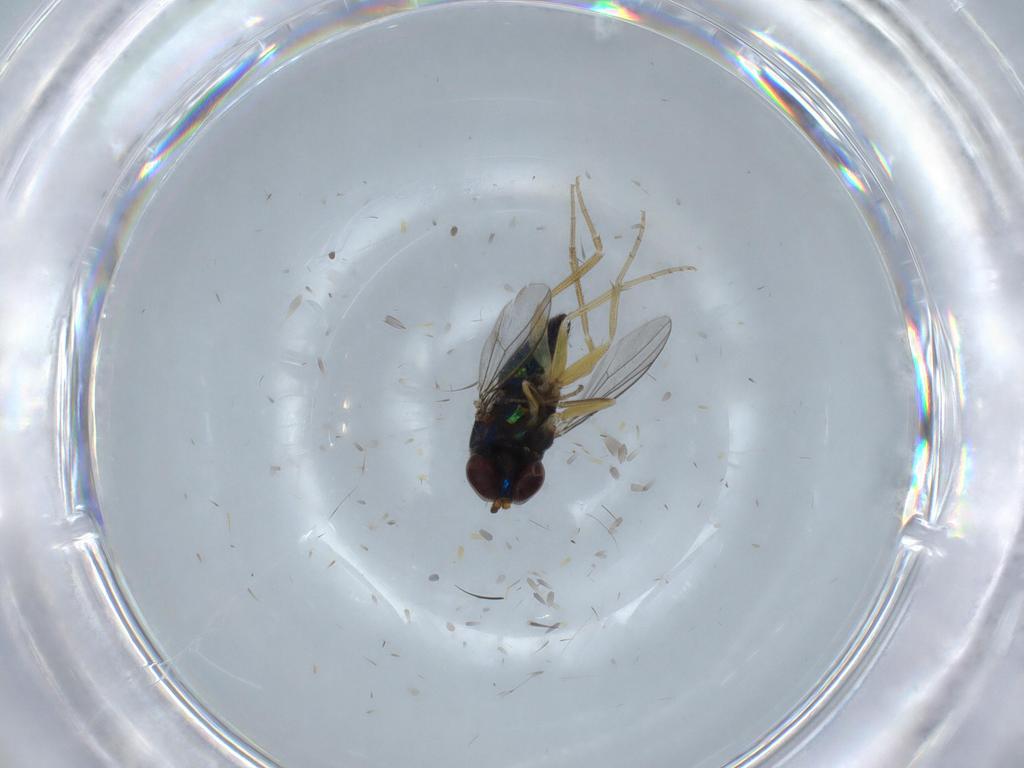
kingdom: Animalia
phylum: Arthropoda
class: Insecta
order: Diptera
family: Dolichopodidae
